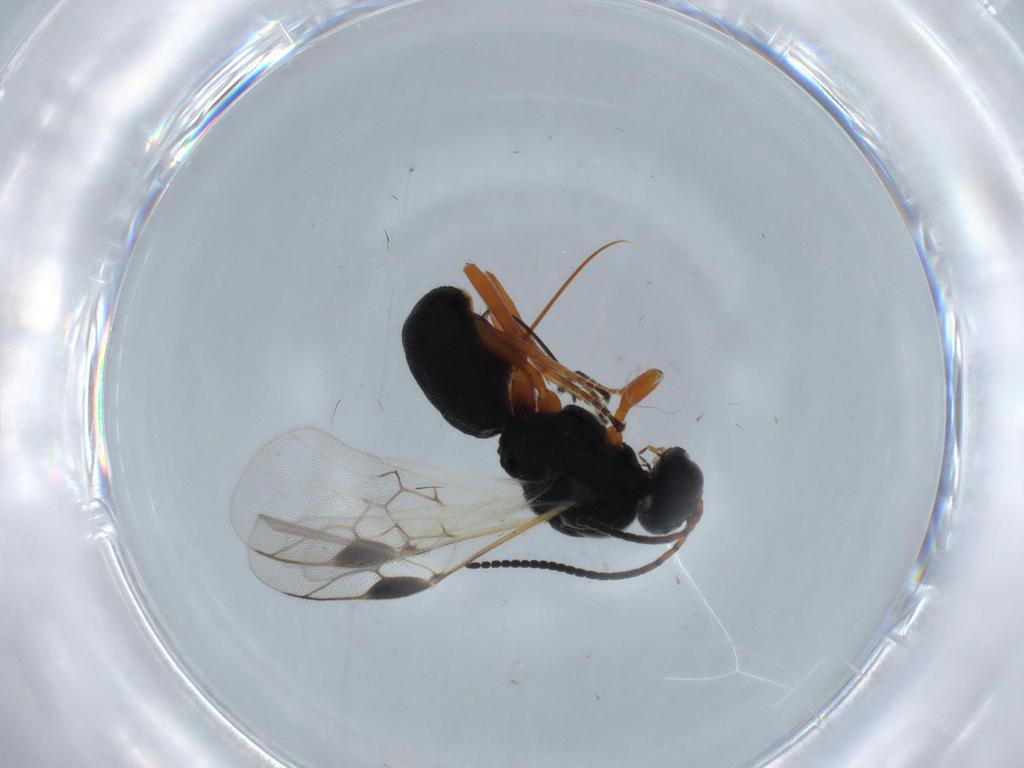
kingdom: Animalia
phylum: Arthropoda
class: Insecta
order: Hymenoptera
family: Braconidae
